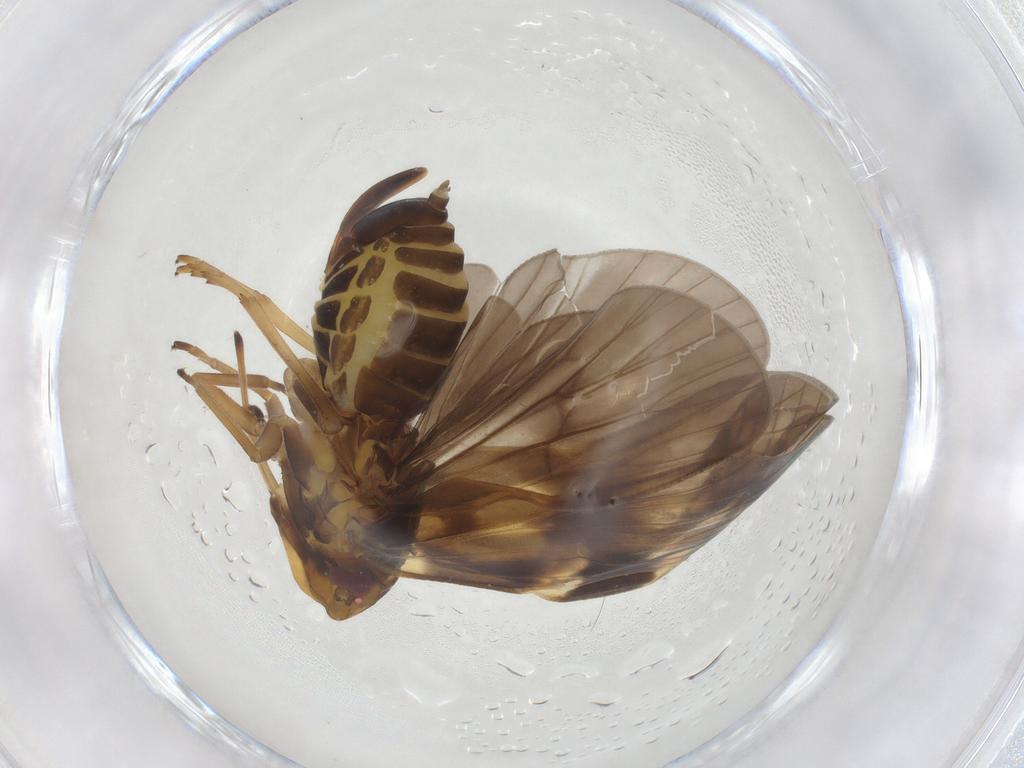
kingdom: Animalia
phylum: Arthropoda
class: Insecta
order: Hemiptera
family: Cixiidae
